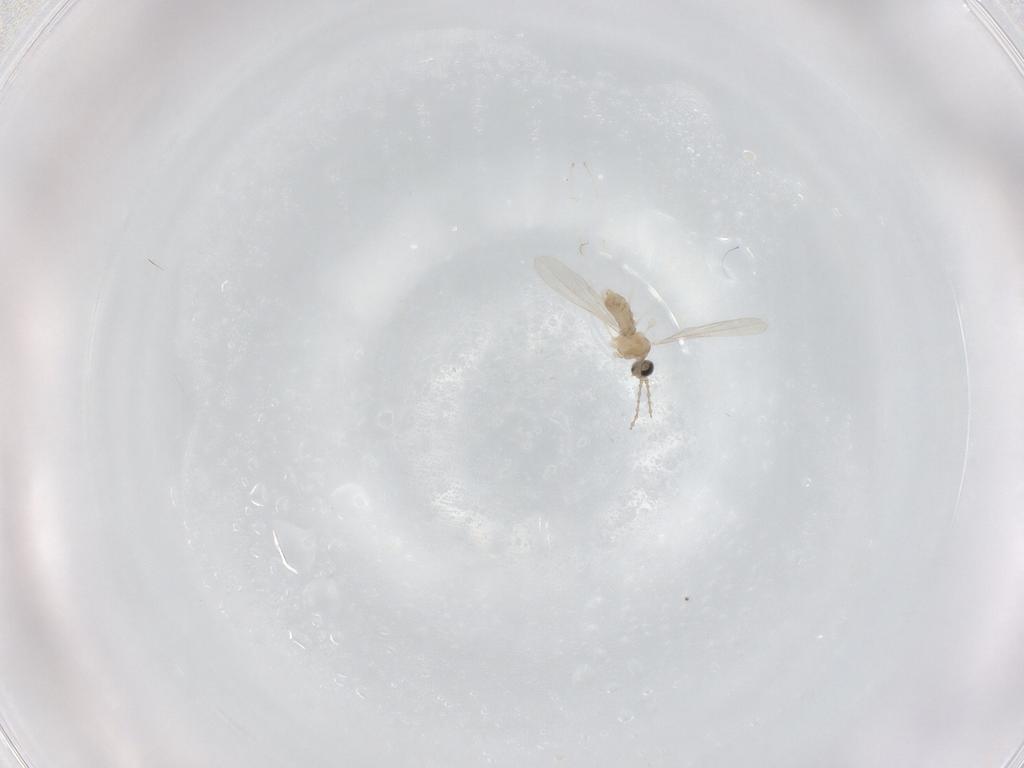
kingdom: Animalia
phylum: Arthropoda
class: Insecta
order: Diptera
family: Cecidomyiidae
